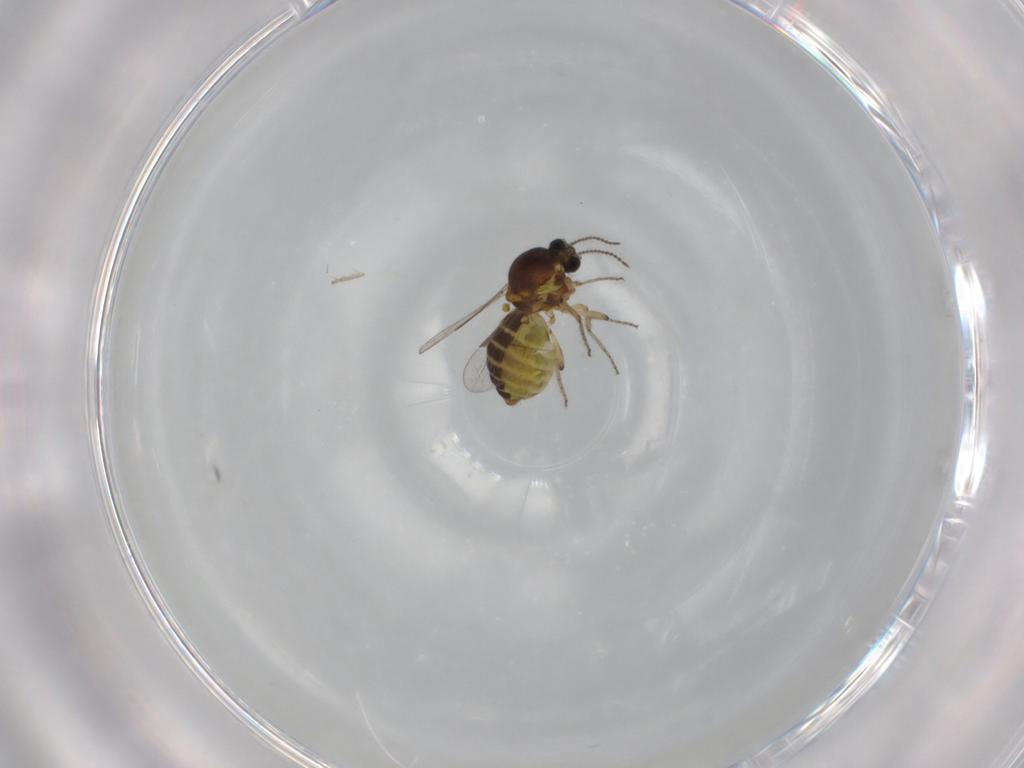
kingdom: Animalia
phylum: Arthropoda
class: Insecta
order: Diptera
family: Ceratopogonidae
